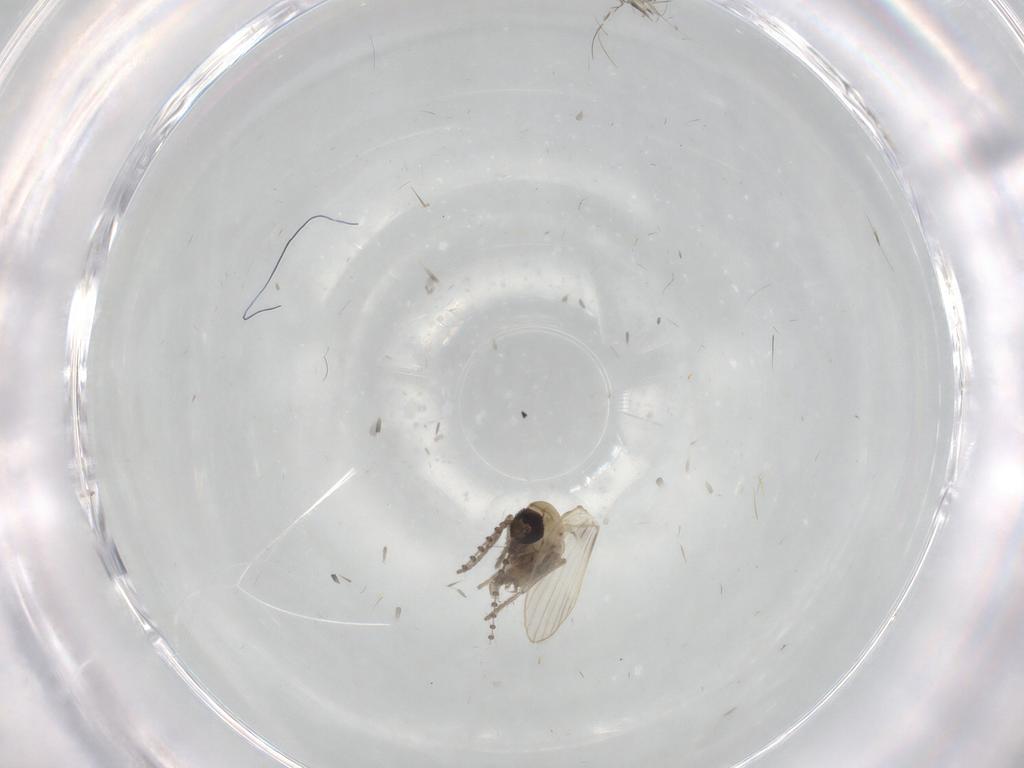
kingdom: Animalia
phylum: Arthropoda
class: Insecta
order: Diptera
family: Psychodidae
